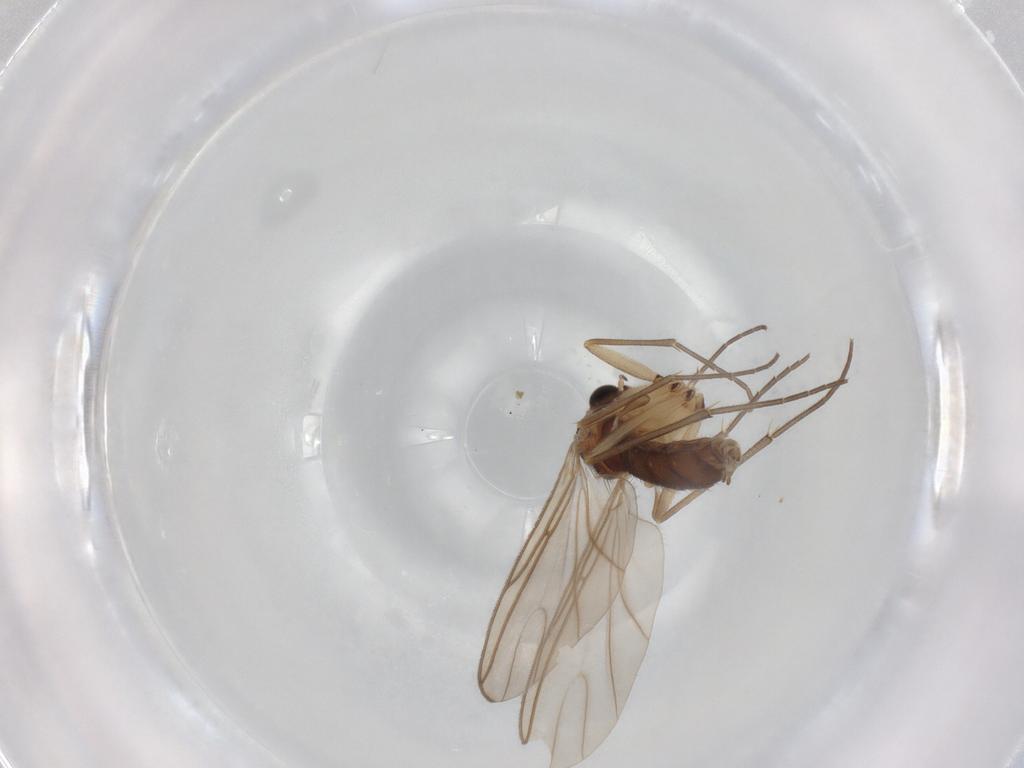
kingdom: Animalia
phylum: Arthropoda
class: Insecta
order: Diptera
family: Sciaridae
